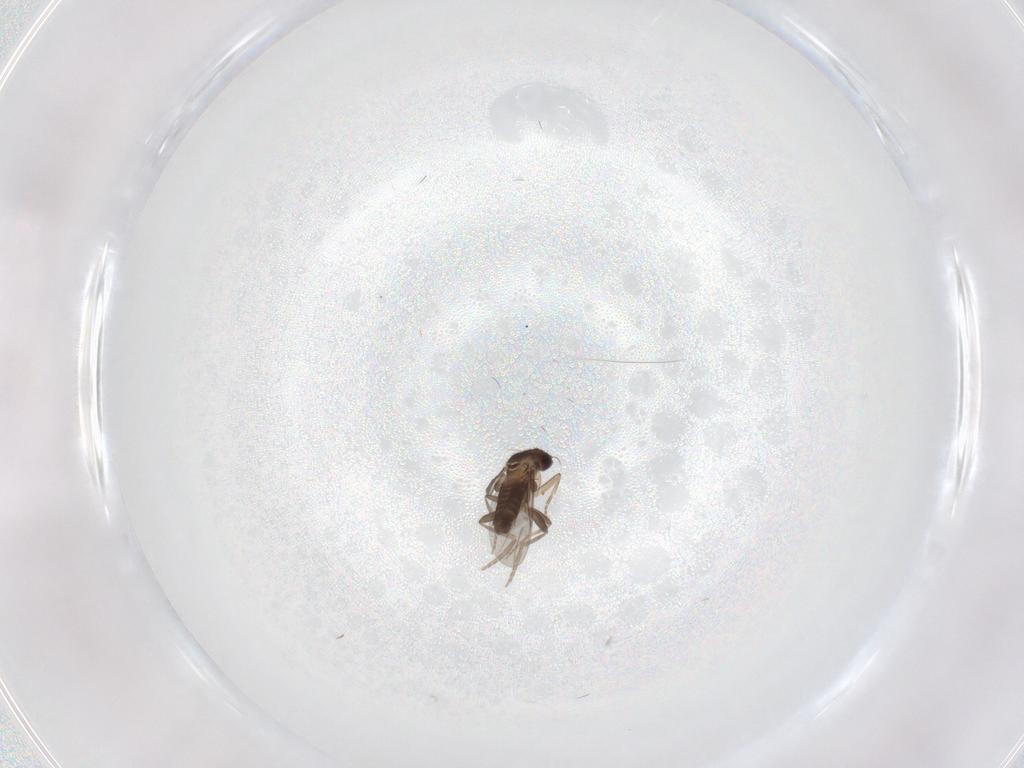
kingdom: Animalia
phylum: Arthropoda
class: Insecta
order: Diptera
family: Phoridae
